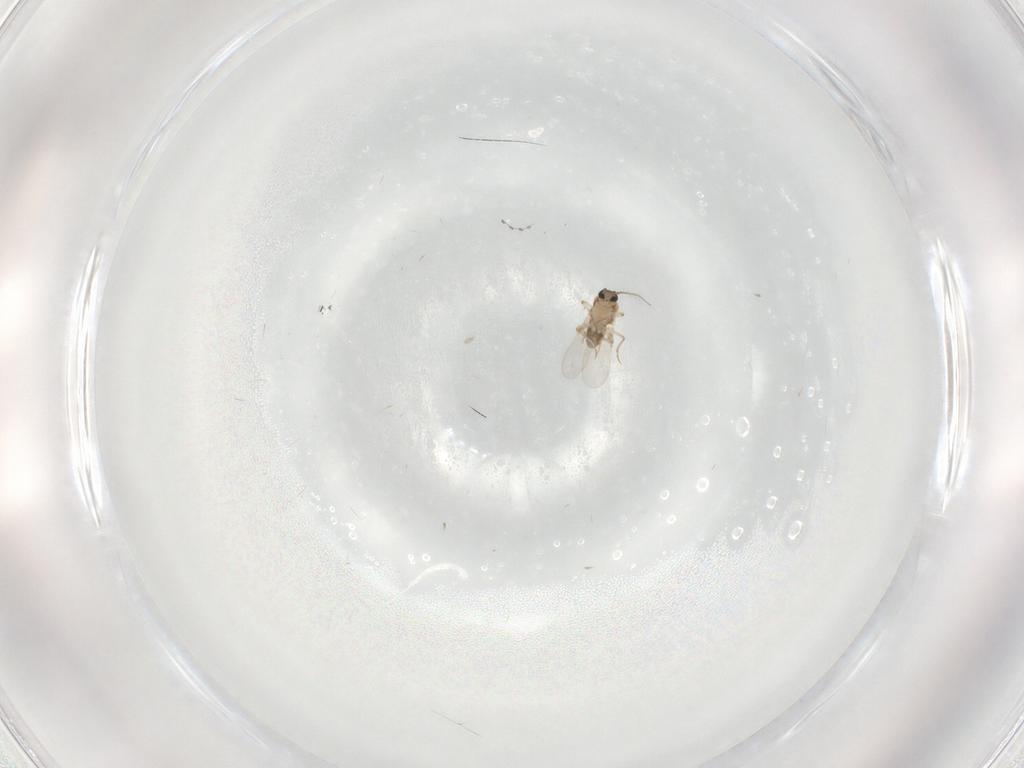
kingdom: Animalia
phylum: Arthropoda
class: Insecta
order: Diptera
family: Ceratopogonidae
